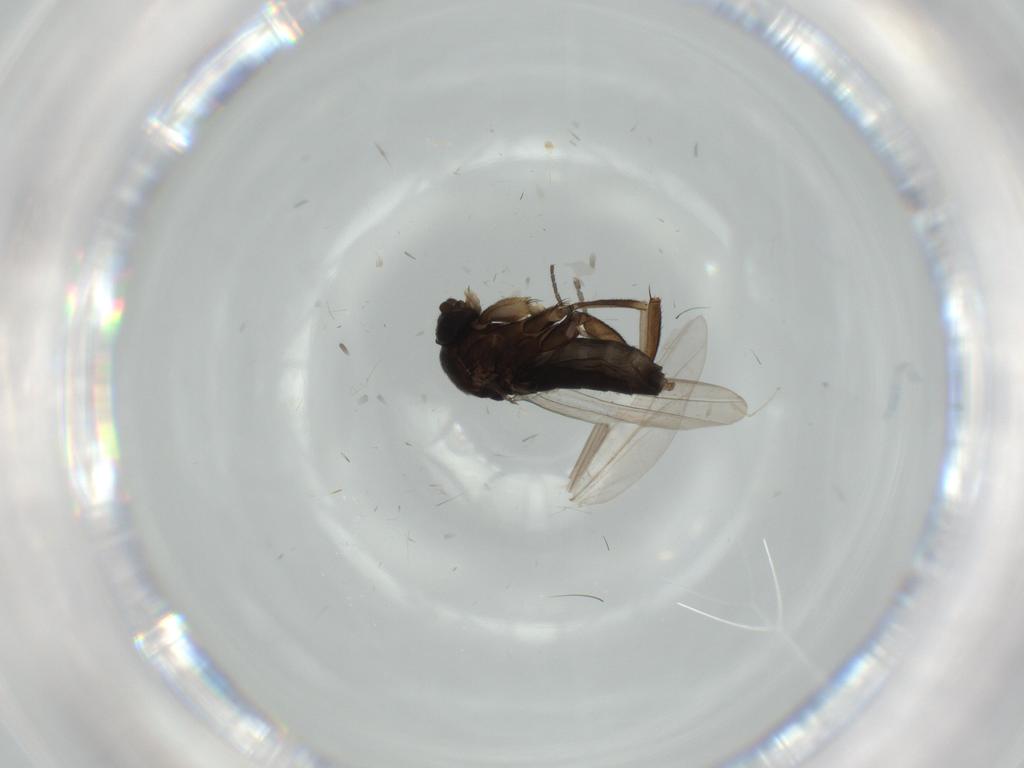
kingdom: Animalia
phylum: Arthropoda
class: Insecta
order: Diptera
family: Phoridae
